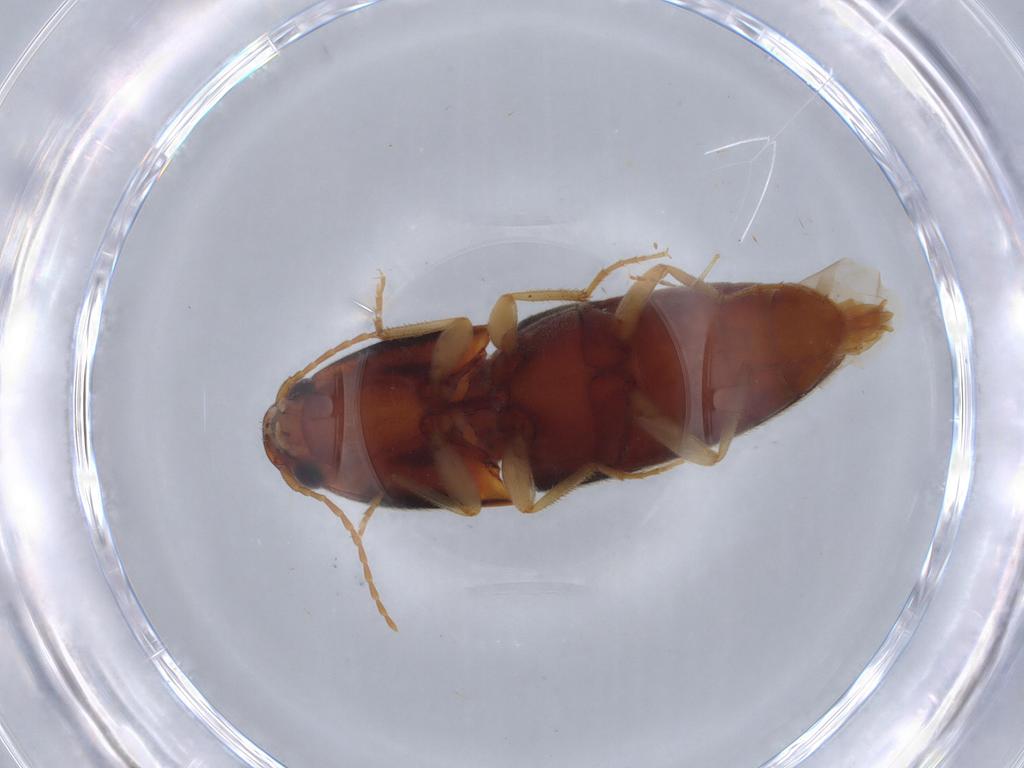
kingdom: Animalia
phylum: Arthropoda
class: Insecta
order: Coleoptera
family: Elateridae
